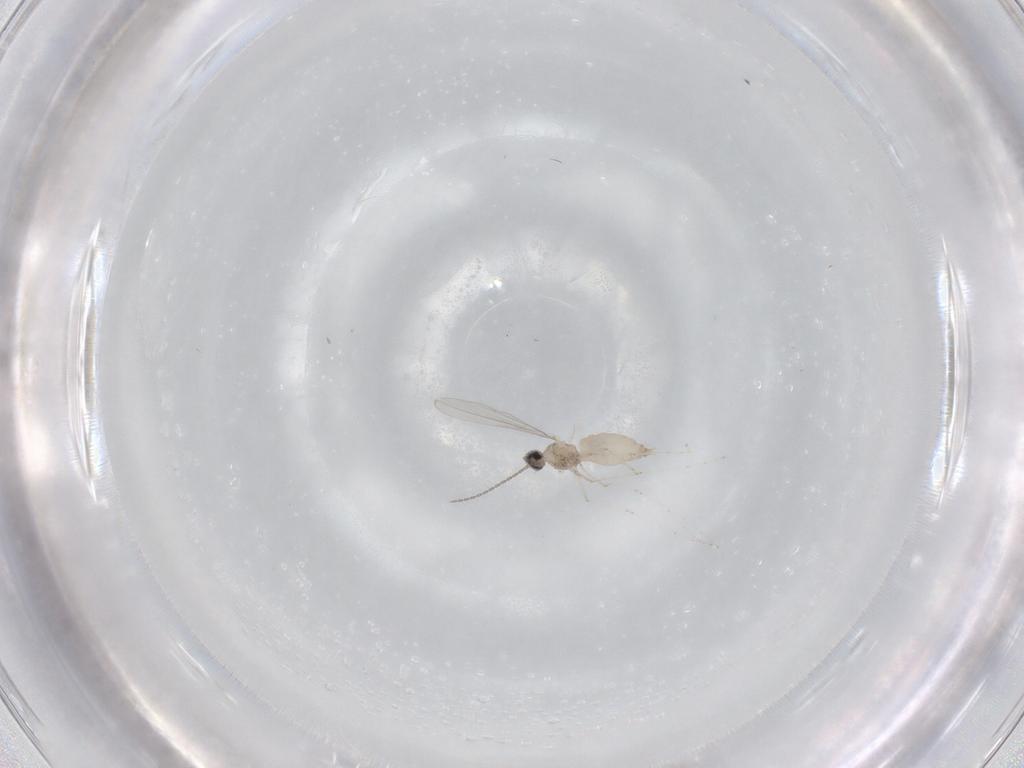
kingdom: Animalia
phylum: Arthropoda
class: Insecta
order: Diptera
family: Cecidomyiidae
